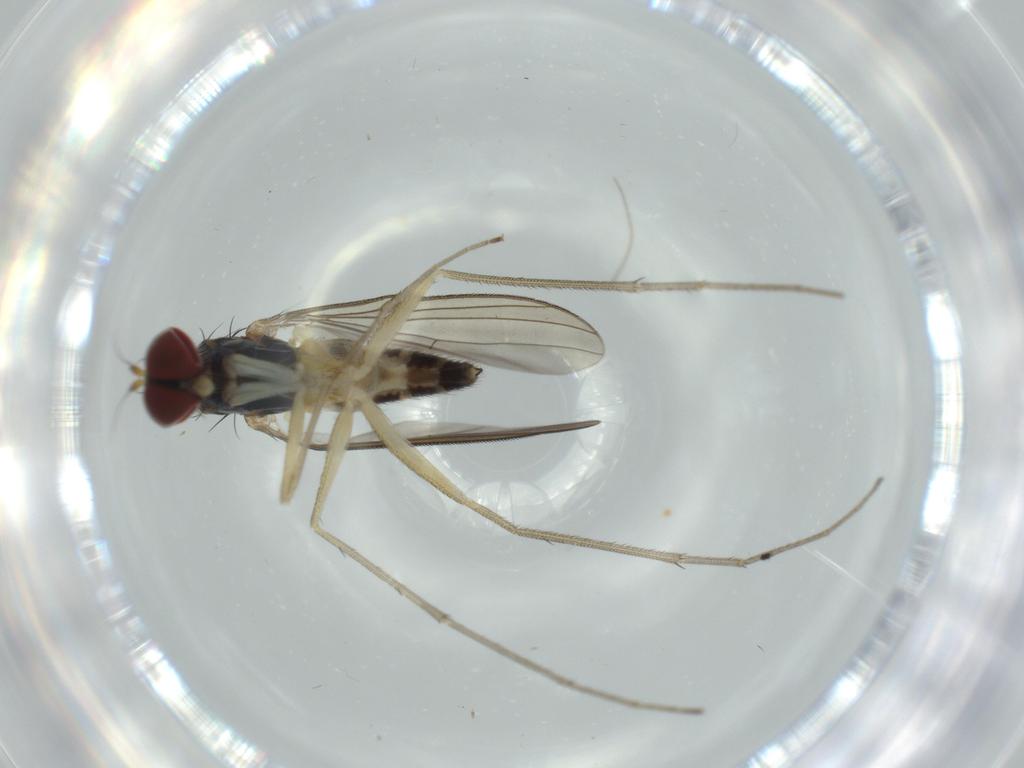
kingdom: Animalia
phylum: Arthropoda
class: Insecta
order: Diptera
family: Dolichopodidae
